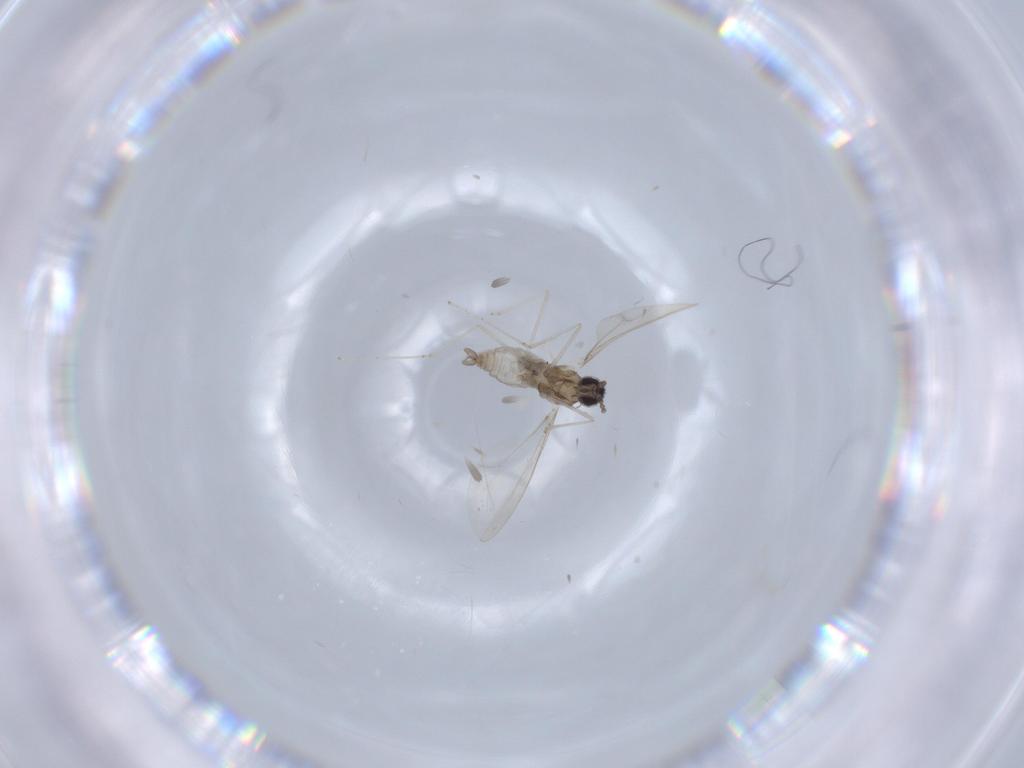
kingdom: Animalia
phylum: Arthropoda
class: Insecta
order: Diptera
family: Cecidomyiidae
